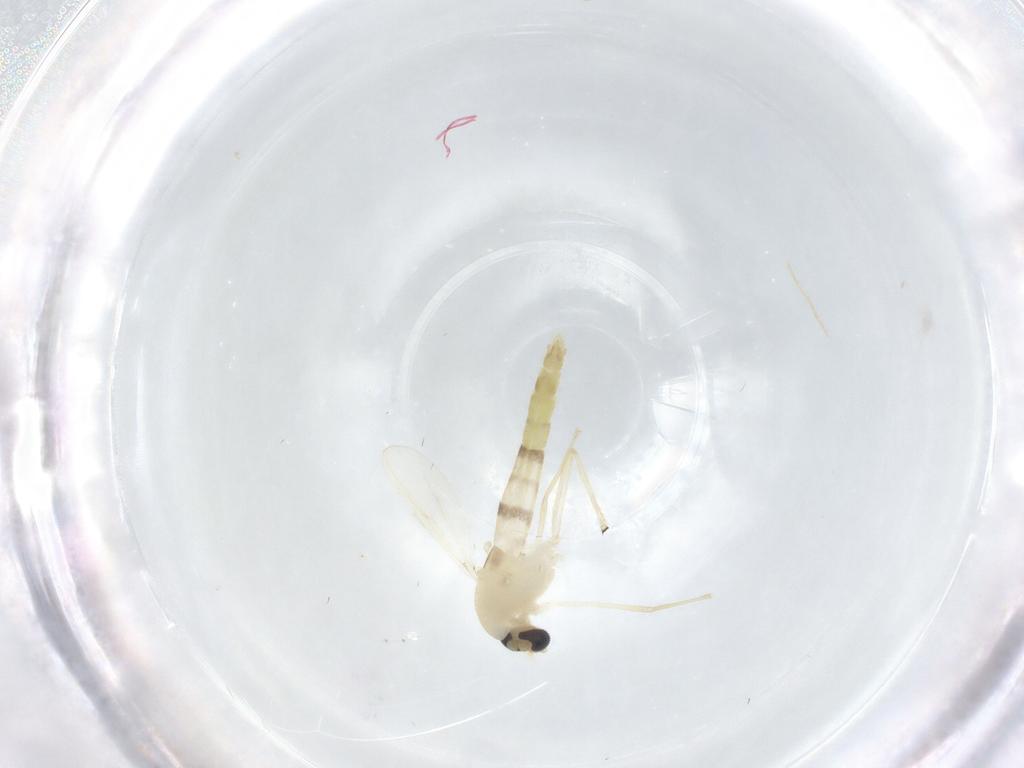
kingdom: Animalia
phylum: Arthropoda
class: Insecta
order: Diptera
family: Chironomidae
